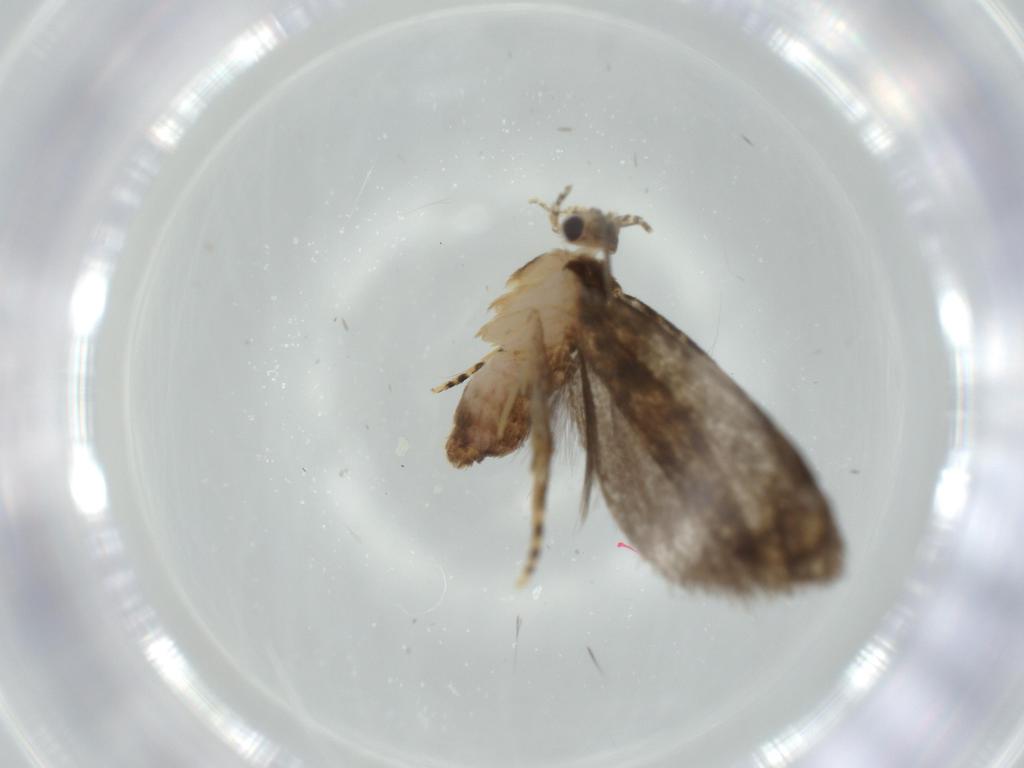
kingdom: Animalia
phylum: Arthropoda
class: Insecta
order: Lepidoptera
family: Tineidae
